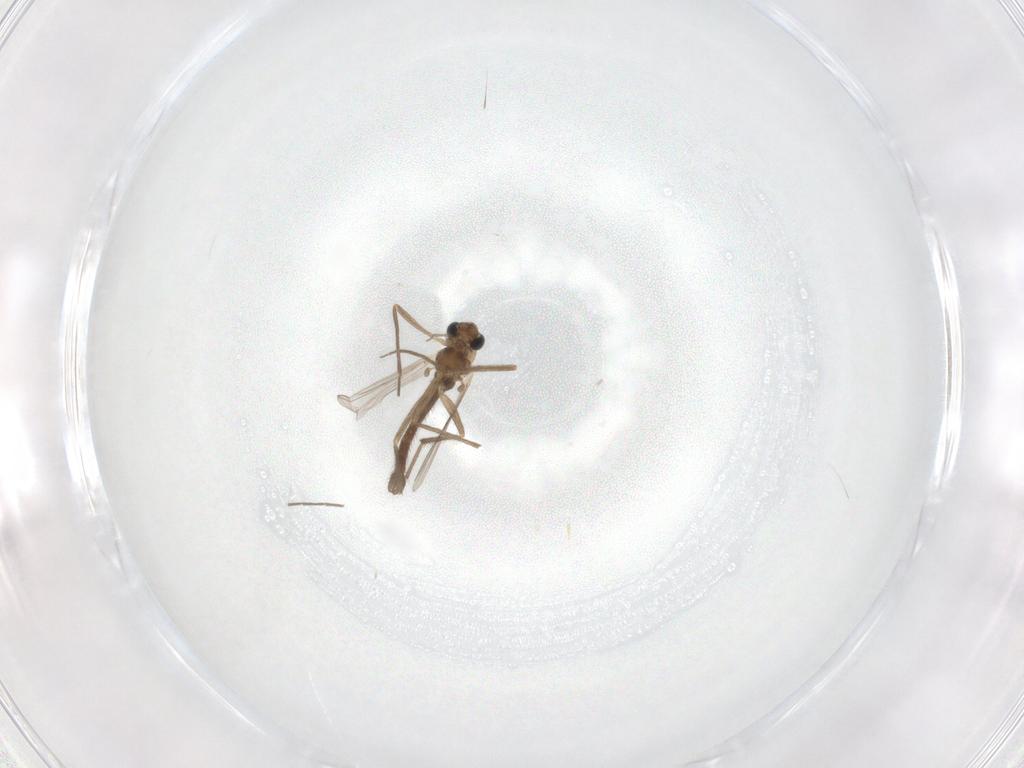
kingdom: Animalia
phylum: Arthropoda
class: Insecta
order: Diptera
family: Chironomidae
